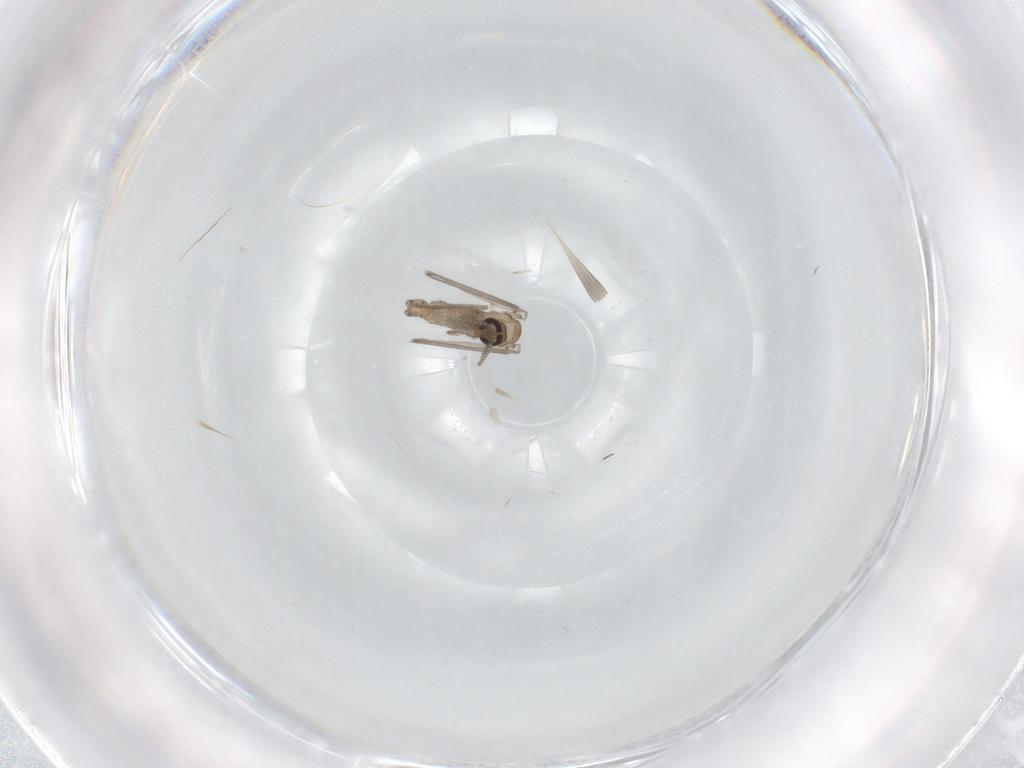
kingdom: Animalia
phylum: Arthropoda
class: Insecta
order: Diptera
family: Psychodidae
